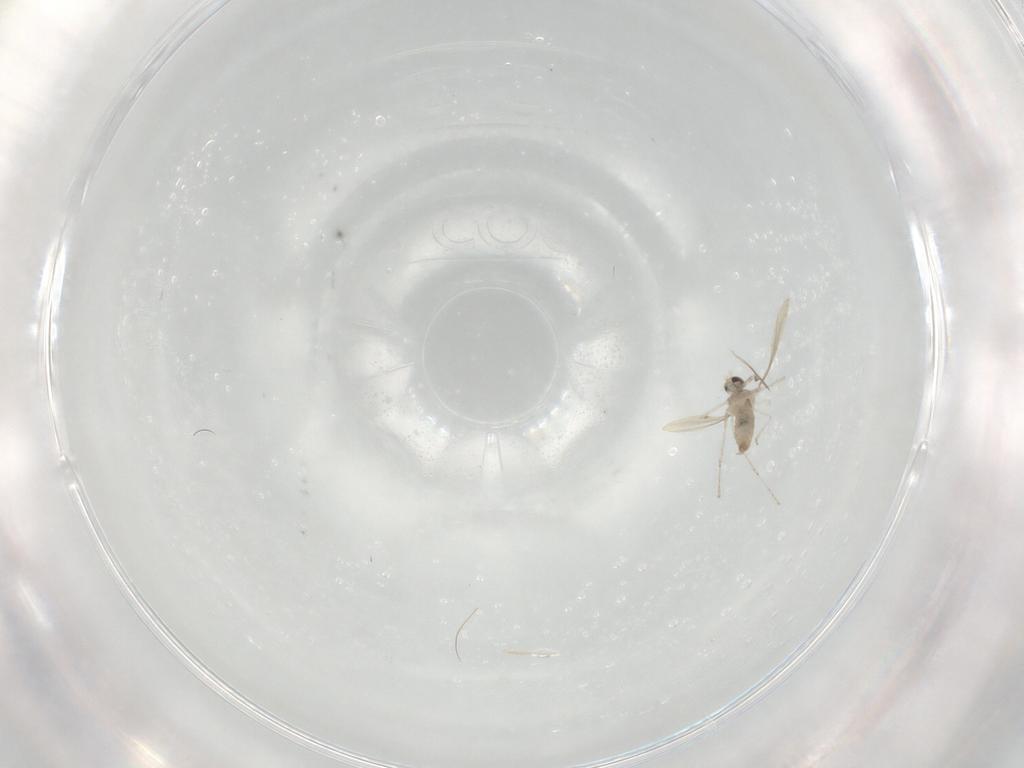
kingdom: Animalia
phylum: Arthropoda
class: Insecta
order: Diptera
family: Cecidomyiidae
